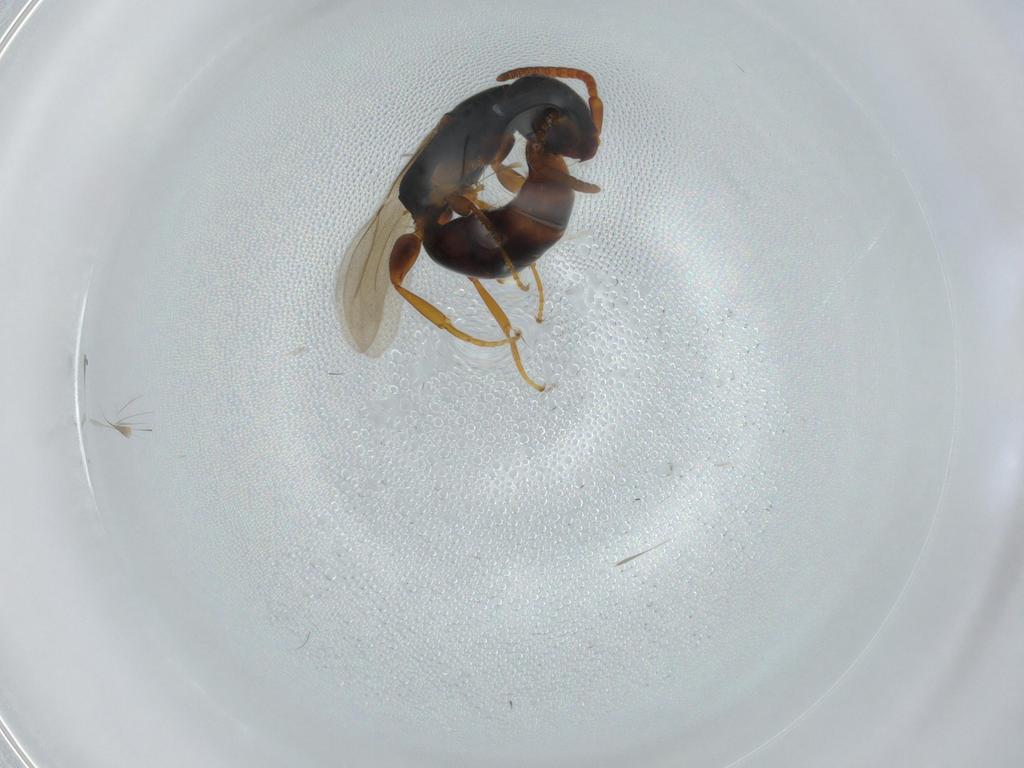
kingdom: Animalia
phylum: Arthropoda
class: Insecta
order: Hymenoptera
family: Bethylidae
